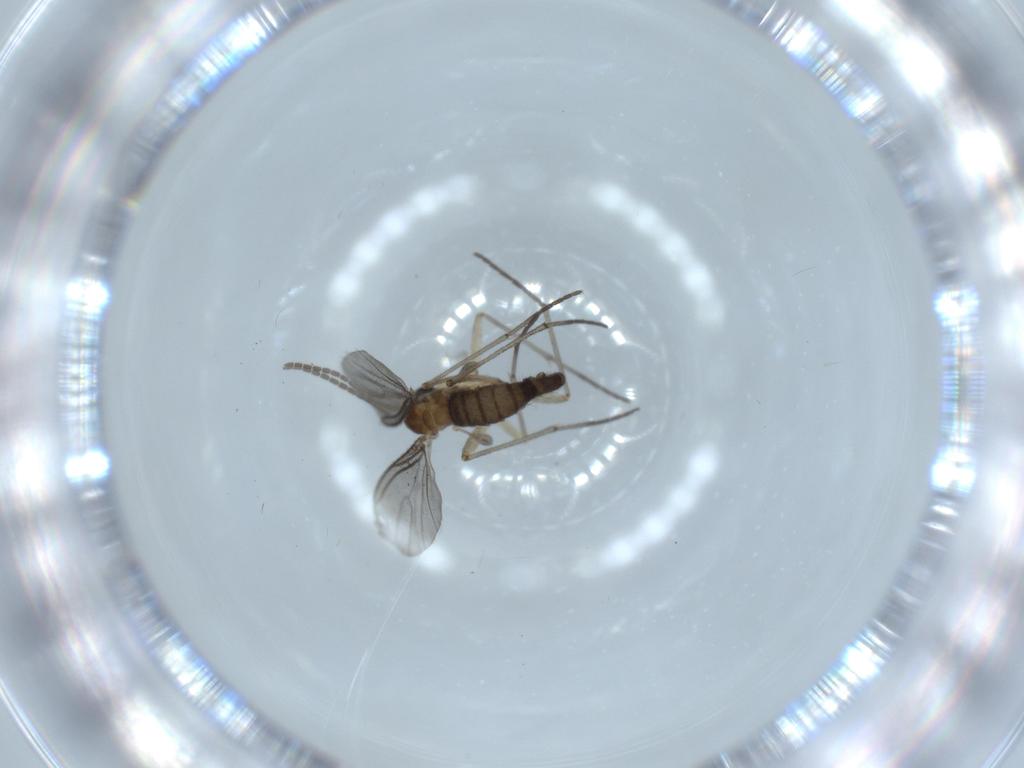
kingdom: Animalia
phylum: Arthropoda
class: Insecta
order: Diptera
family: Sciaridae
